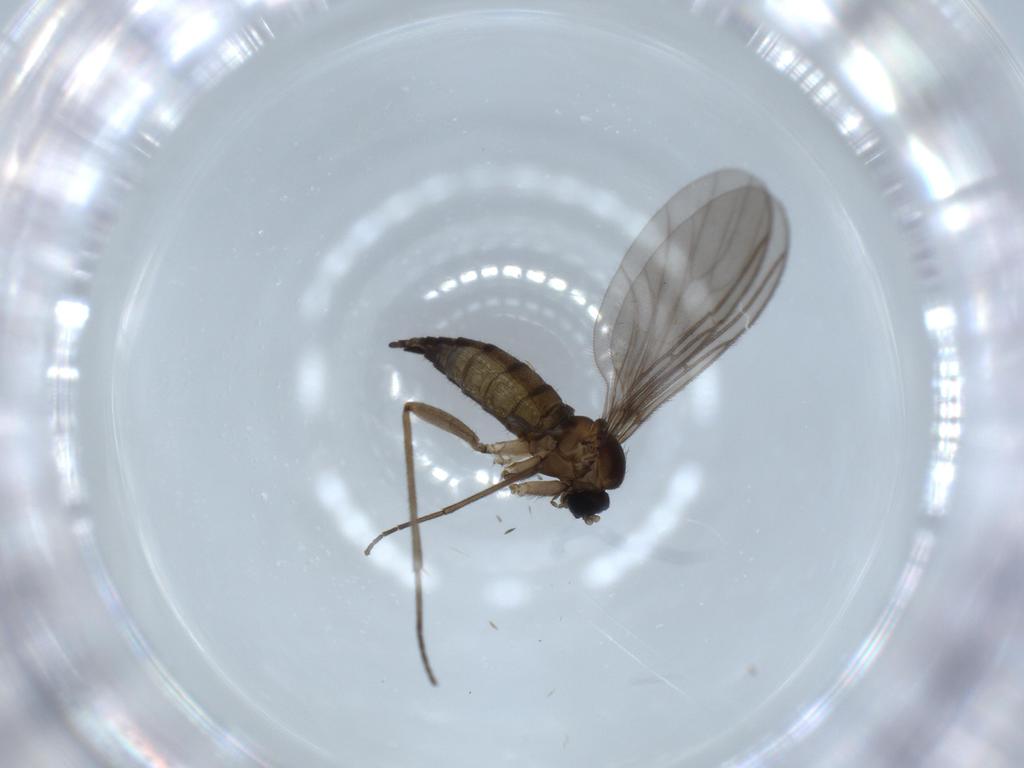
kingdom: Animalia
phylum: Arthropoda
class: Insecta
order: Diptera
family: Sciaridae
